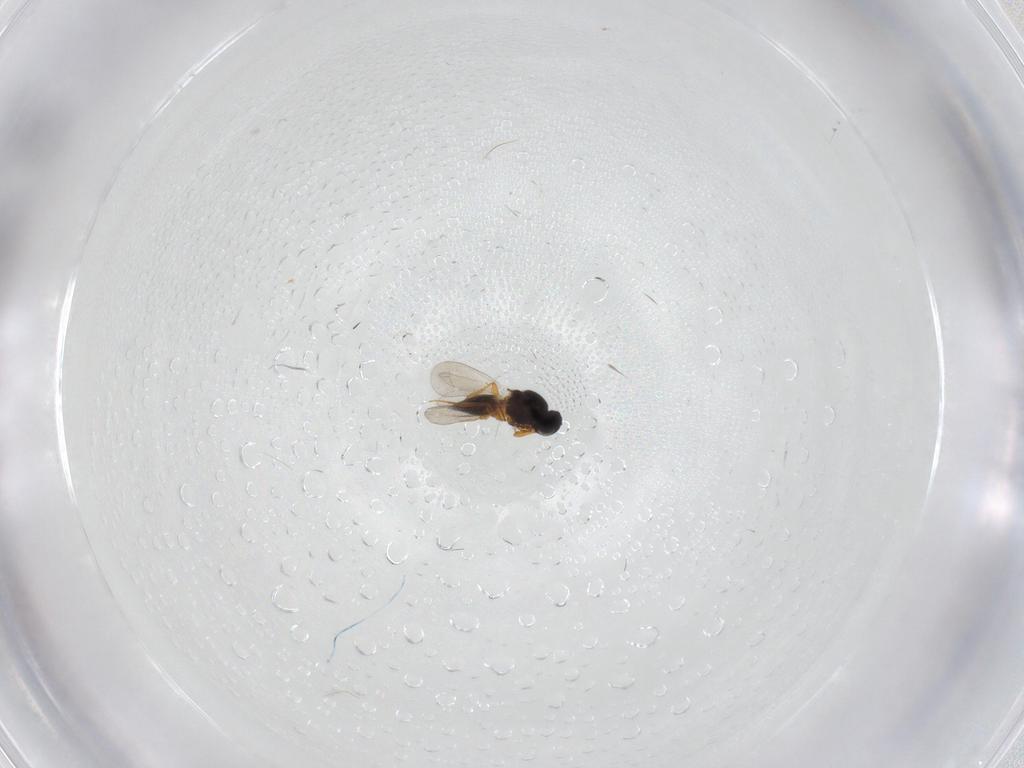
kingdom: Animalia
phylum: Arthropoda
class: Insecta
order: Hymenoptera
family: Platygastridae
